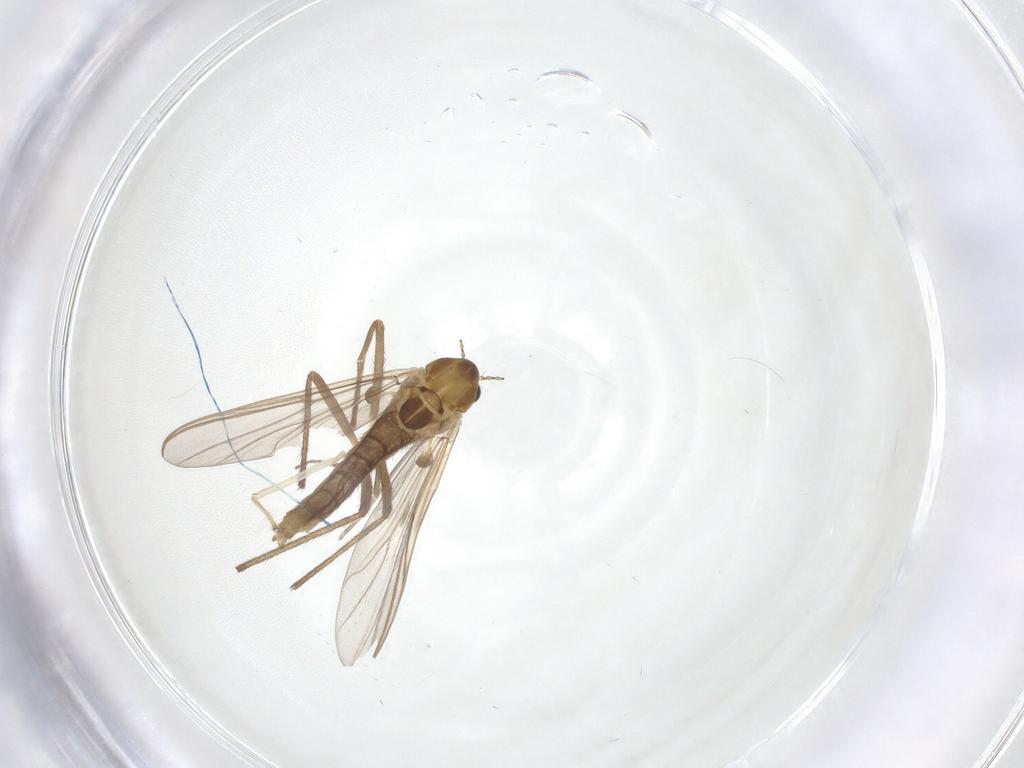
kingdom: Animalia
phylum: Arthropoda
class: Insecta
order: Diptera
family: Chironomidae
